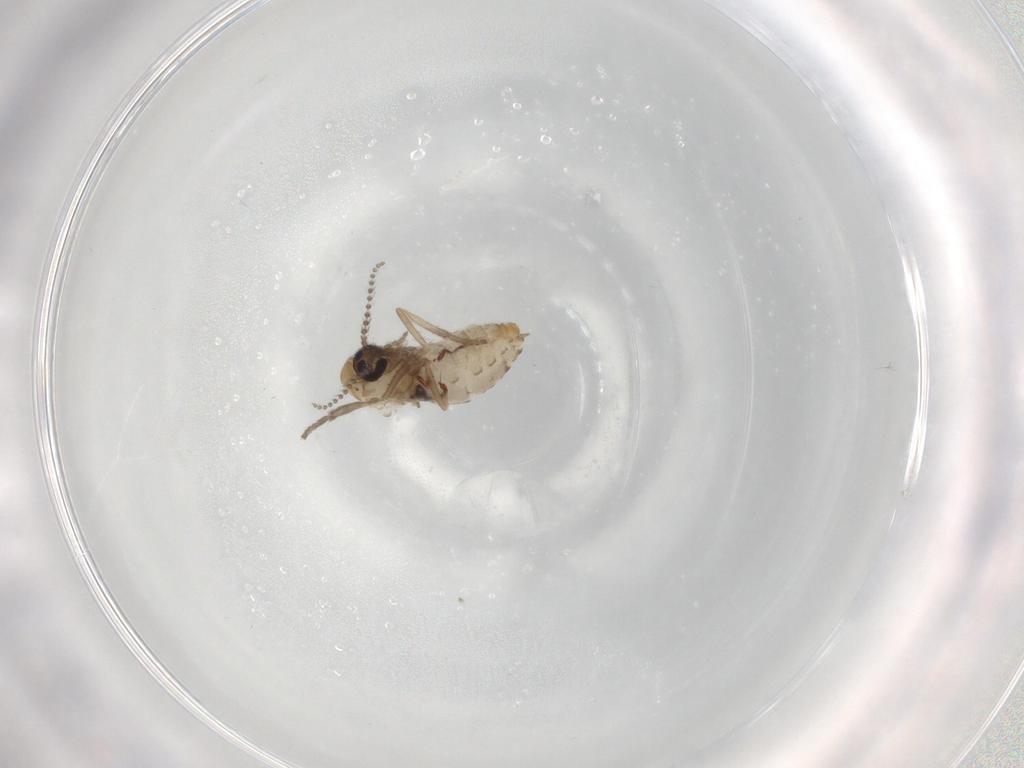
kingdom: Animalia
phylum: Arthropoda
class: Insecta
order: Diptera
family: Psychodidae
